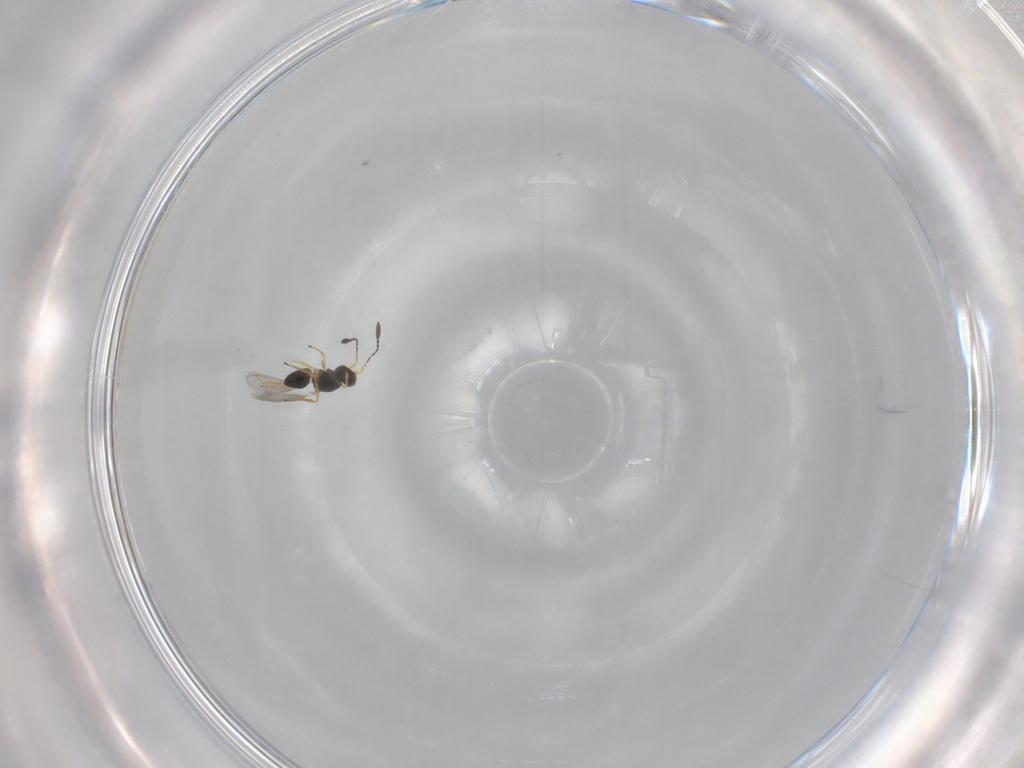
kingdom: Animalia
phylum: Arthropoda
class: Insecta
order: Hymenoptera
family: Mymaridae
